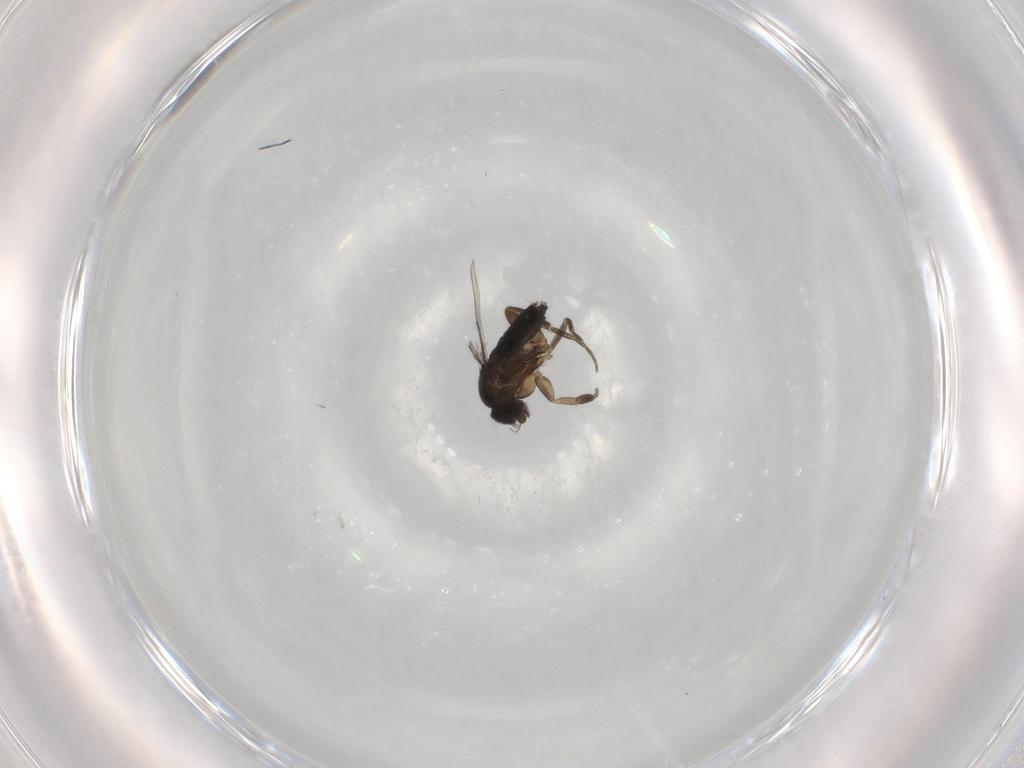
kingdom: Animalia
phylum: Arthropoda
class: Insecta
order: Diptera
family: Phoridae
